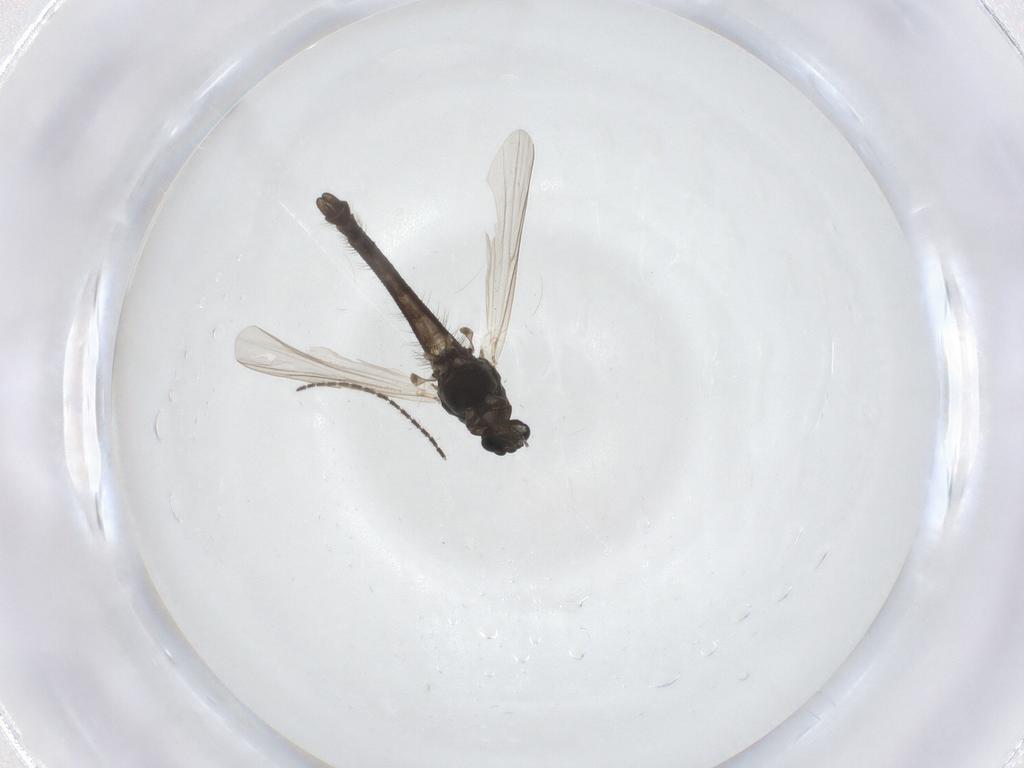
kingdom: Animalia
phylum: Arthropoda
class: Insecta
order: Diptera
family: Chironomidae
